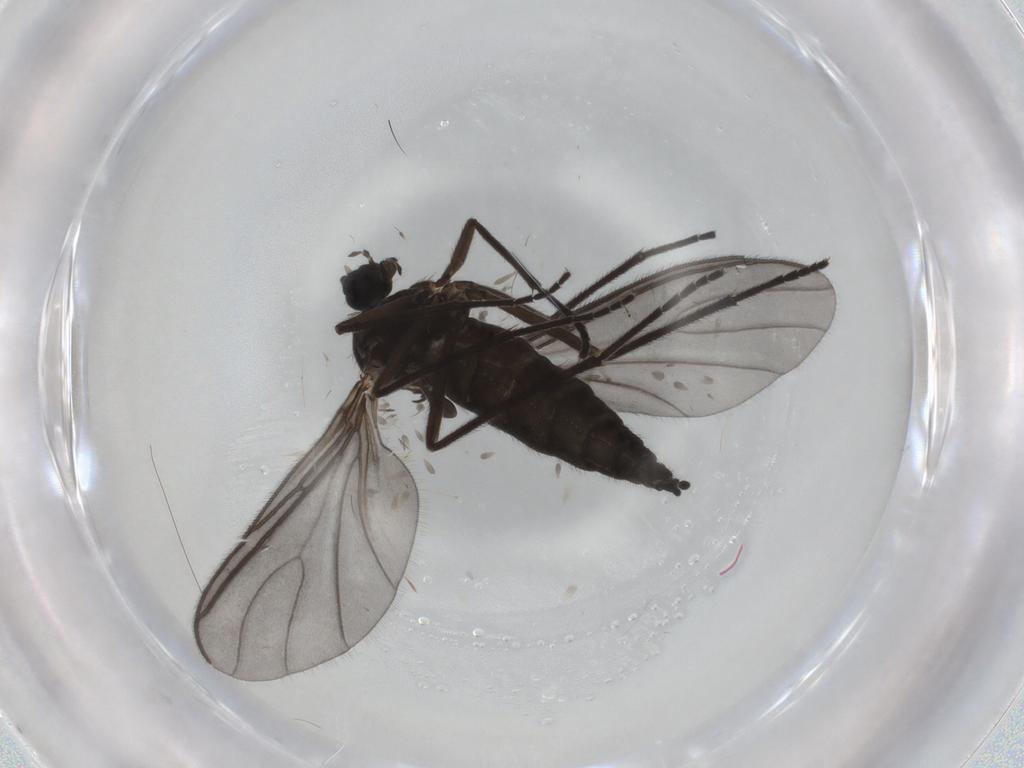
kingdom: Animalia
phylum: Arthropoda
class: Insecta
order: Diptera
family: Sciaridae
